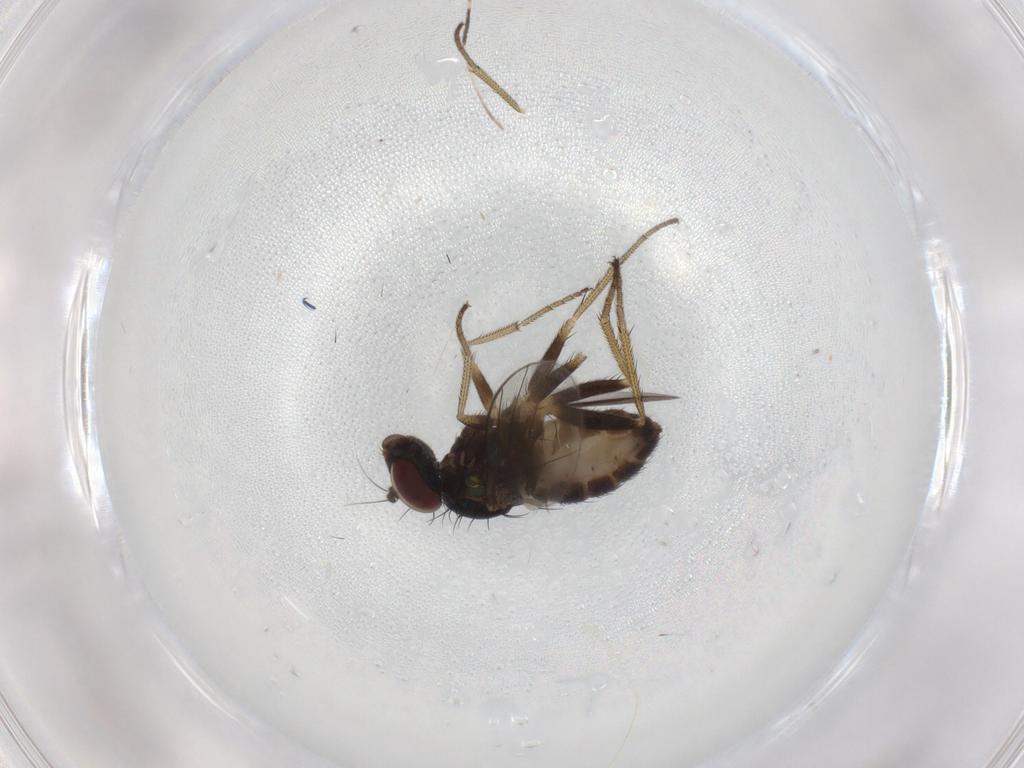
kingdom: Animalia
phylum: Arthropoda
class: Insecta
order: Diptera
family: Dolichopodidae
